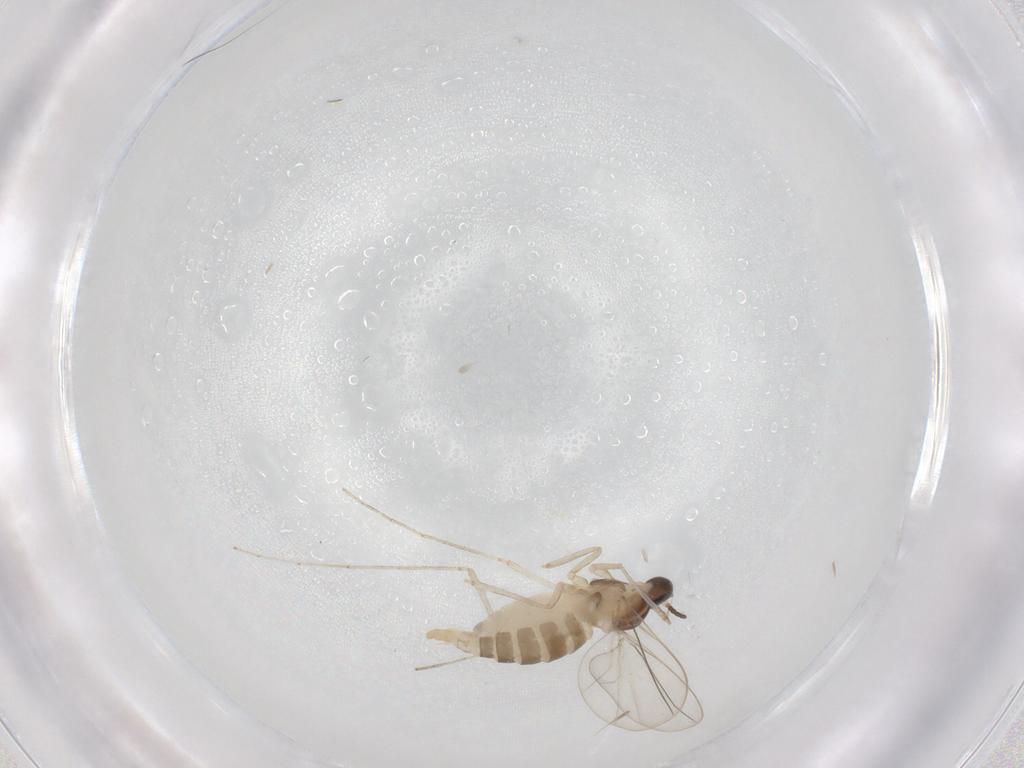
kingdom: Animalia
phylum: Arthropoda
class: Insecta
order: Diptera
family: Cecidomyiidae
